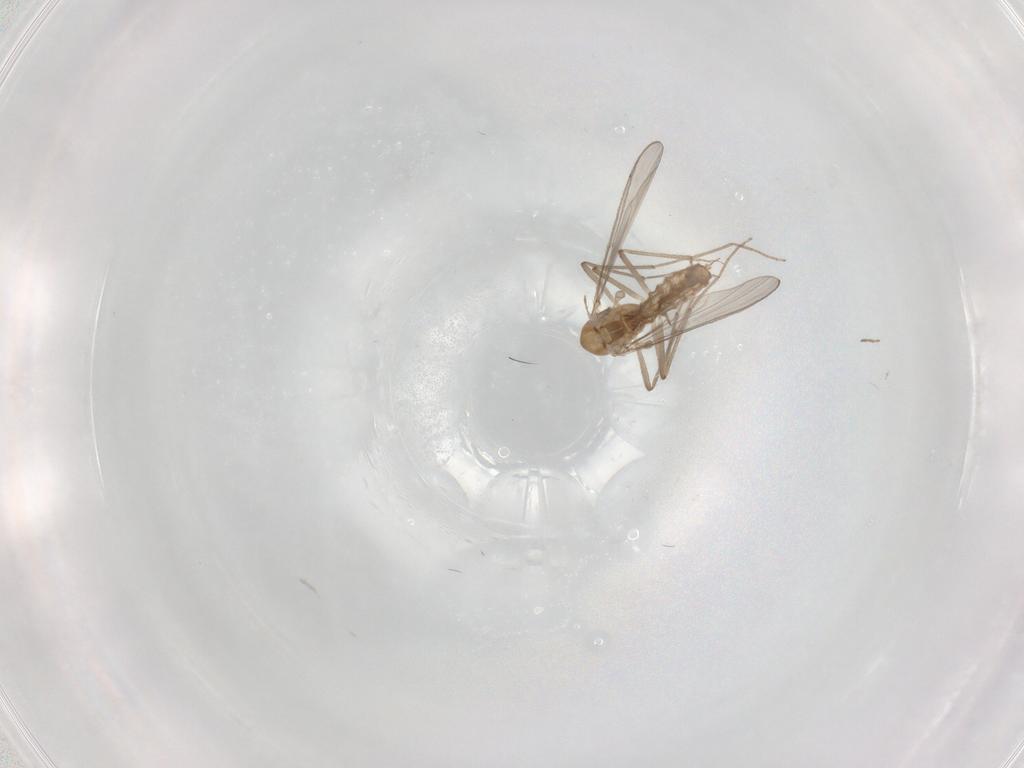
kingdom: Animalia
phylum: Arthropoda
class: Insecta
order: Diptera
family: Chironomidae
